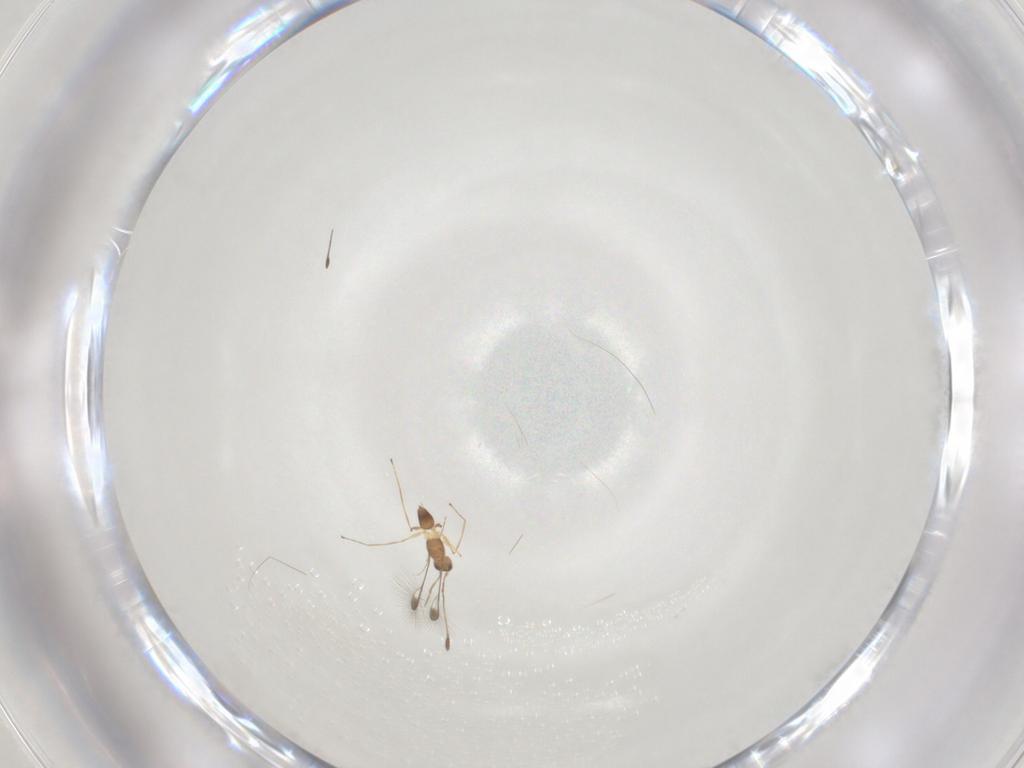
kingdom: Animalia
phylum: Arthropoda
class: Insecta
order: Hymenoptera
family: Mymaridae
